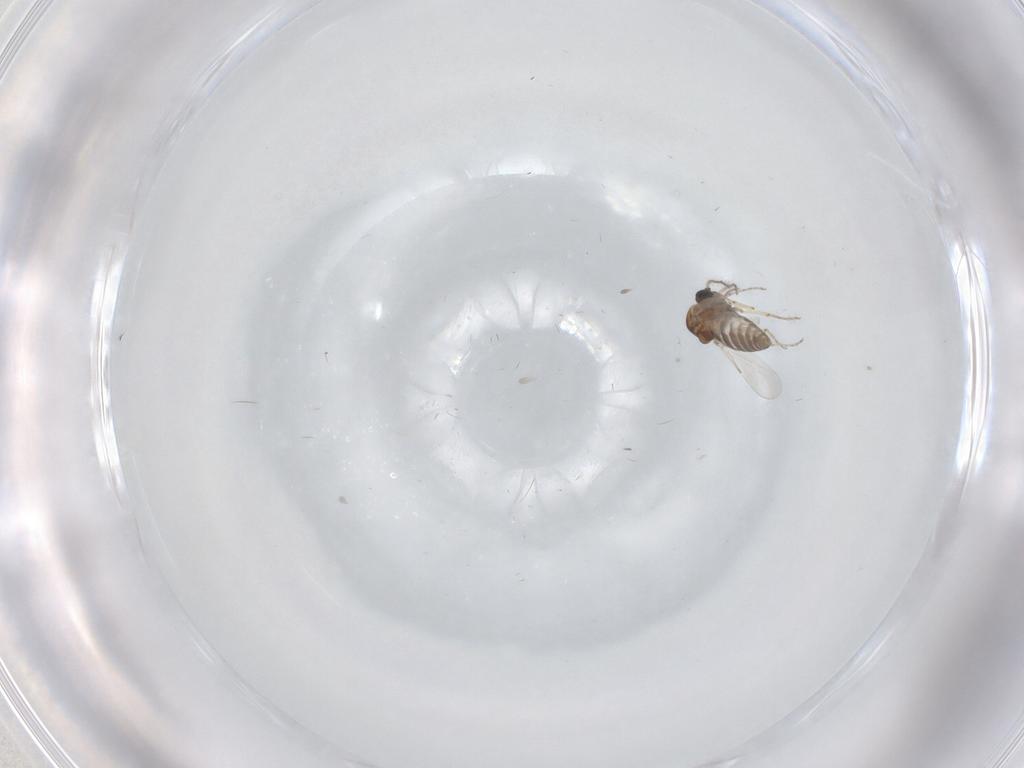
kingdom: Animalia
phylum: Arthropoda
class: Insecta
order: Diptera
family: Ceratopogonidae
